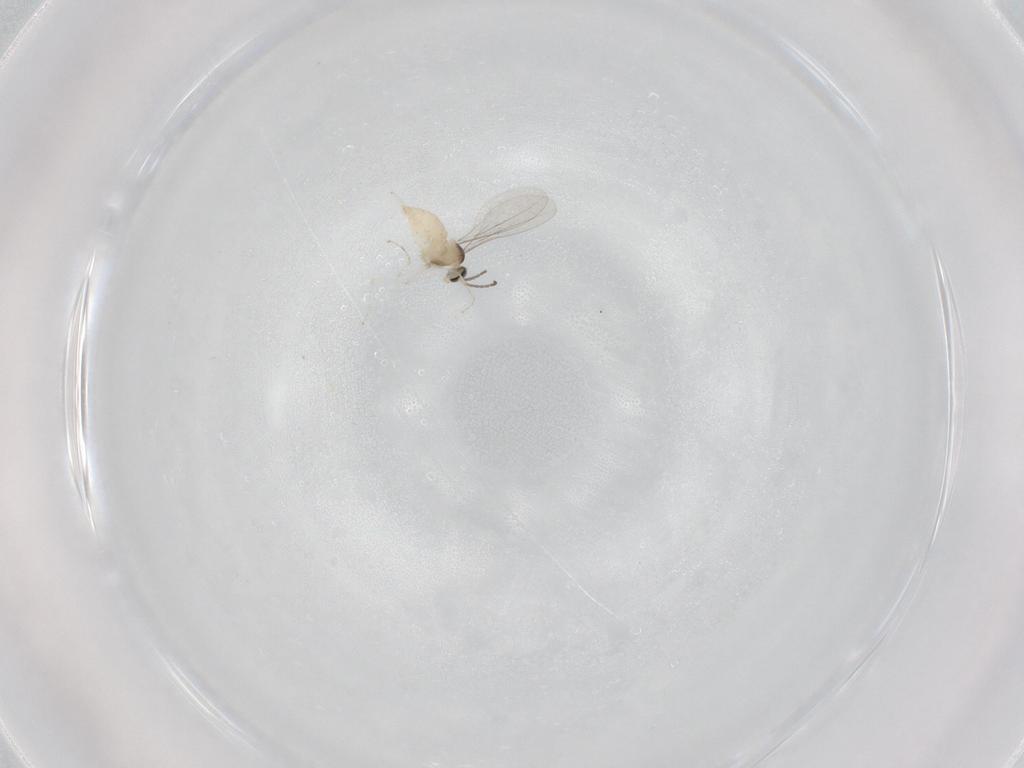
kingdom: Animalia
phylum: Arthropoda
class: Insecta
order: Diptera
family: Cecidomyiidae
